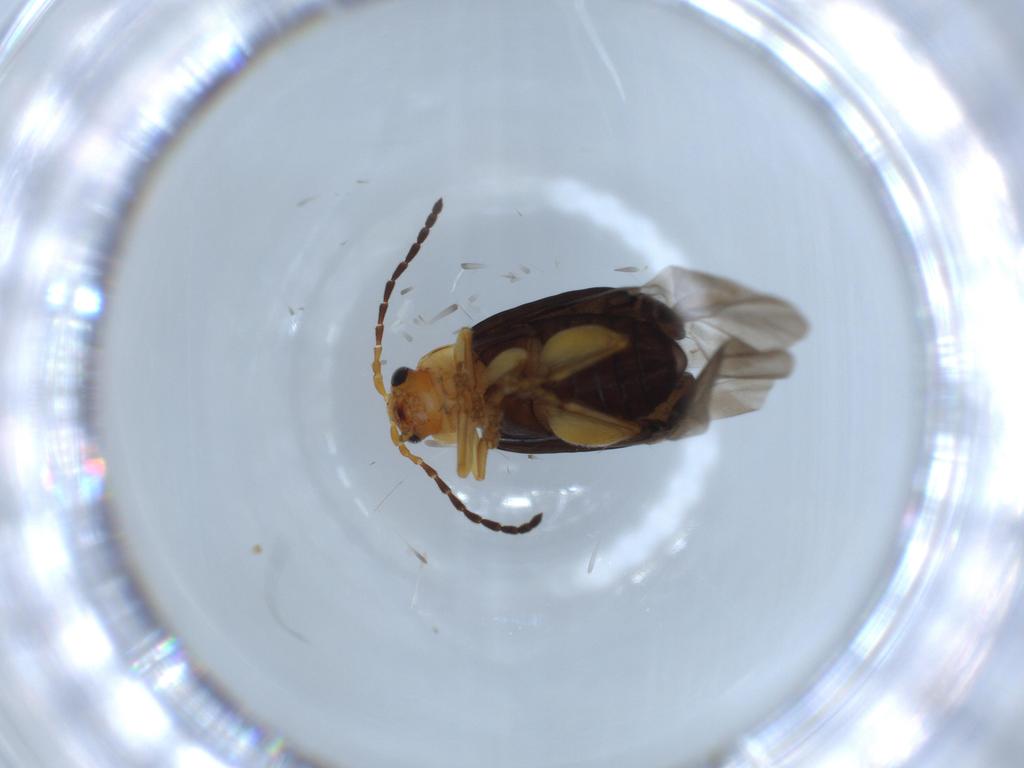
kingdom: Animalia
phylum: Arthropoda
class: Insecta
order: Coleoptera
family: Chrysomelidae
